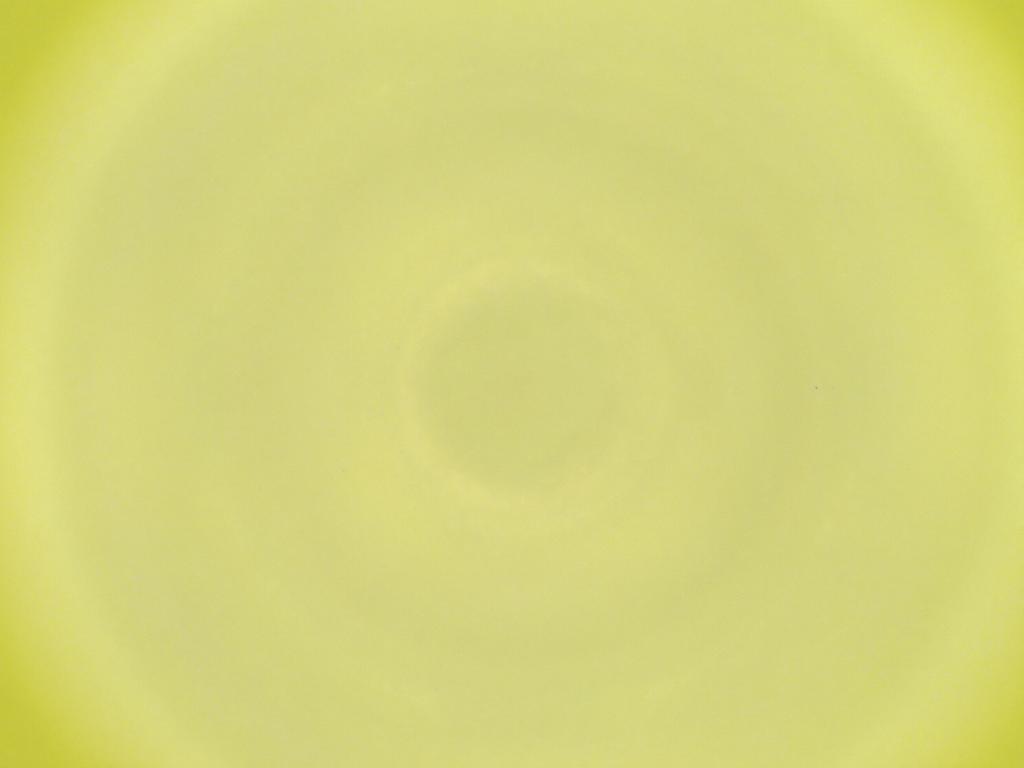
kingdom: Animalia
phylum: Arthropoda
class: Insecta
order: Diptera
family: Cecidomyiidae
